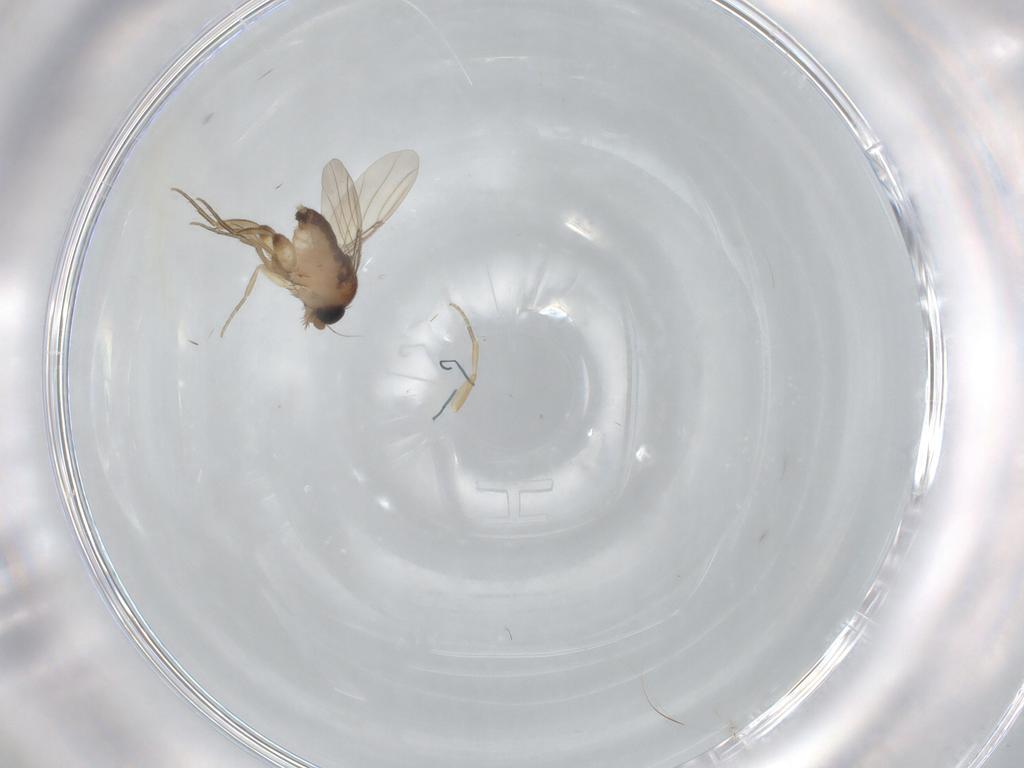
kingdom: Animalia
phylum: Arthropoda
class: Insecta
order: Diptera
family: Phoridae
